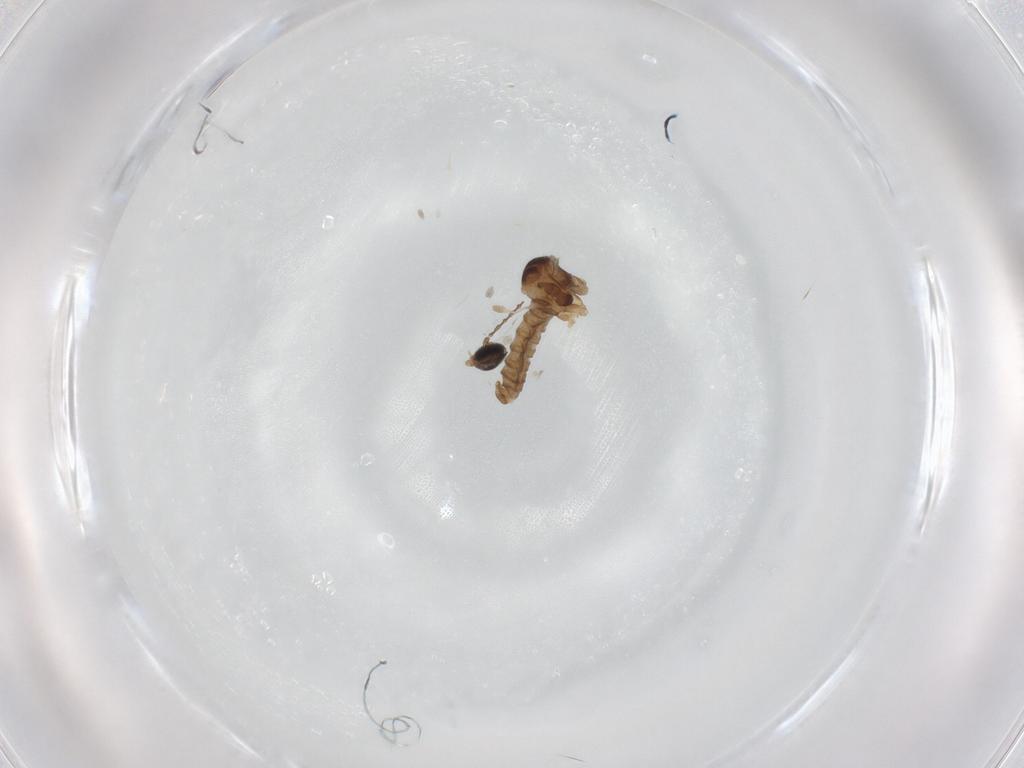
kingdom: Animalia
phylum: Arthropoda
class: Insecta
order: Diptera
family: Cecidomyiidae
